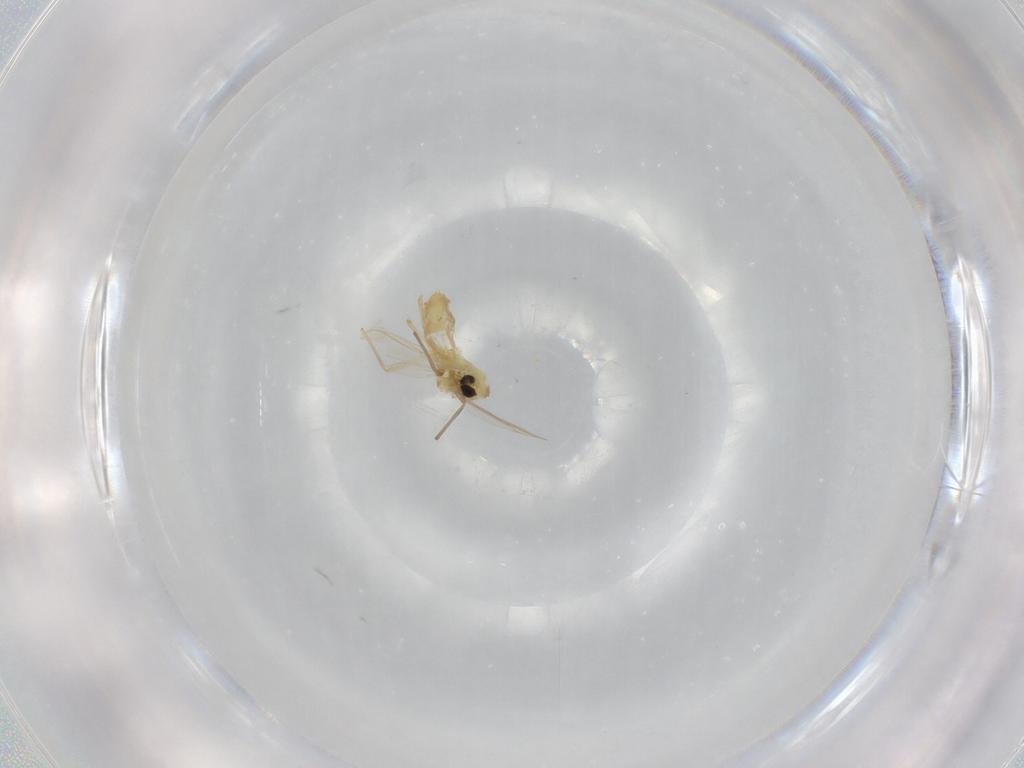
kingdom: Animalia
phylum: Arthropoda
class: Insecta
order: Diptera
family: Chironomidae
